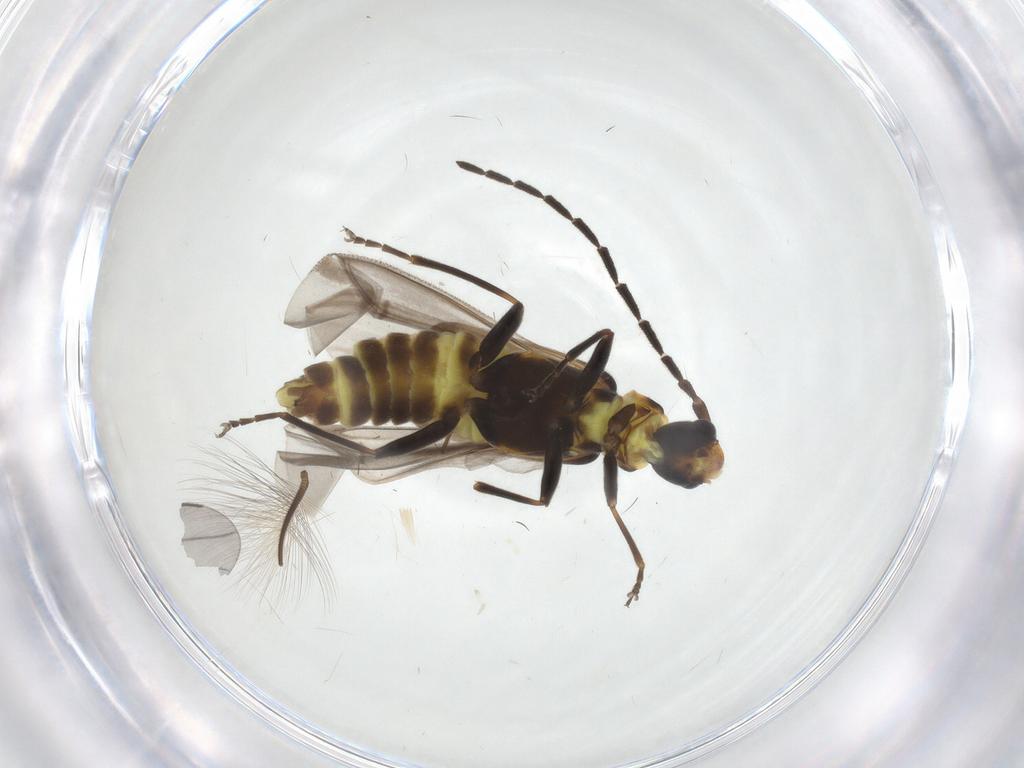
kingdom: Animalia
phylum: Arthropoda
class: Insecta
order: Coleoptera
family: Cantharidae
